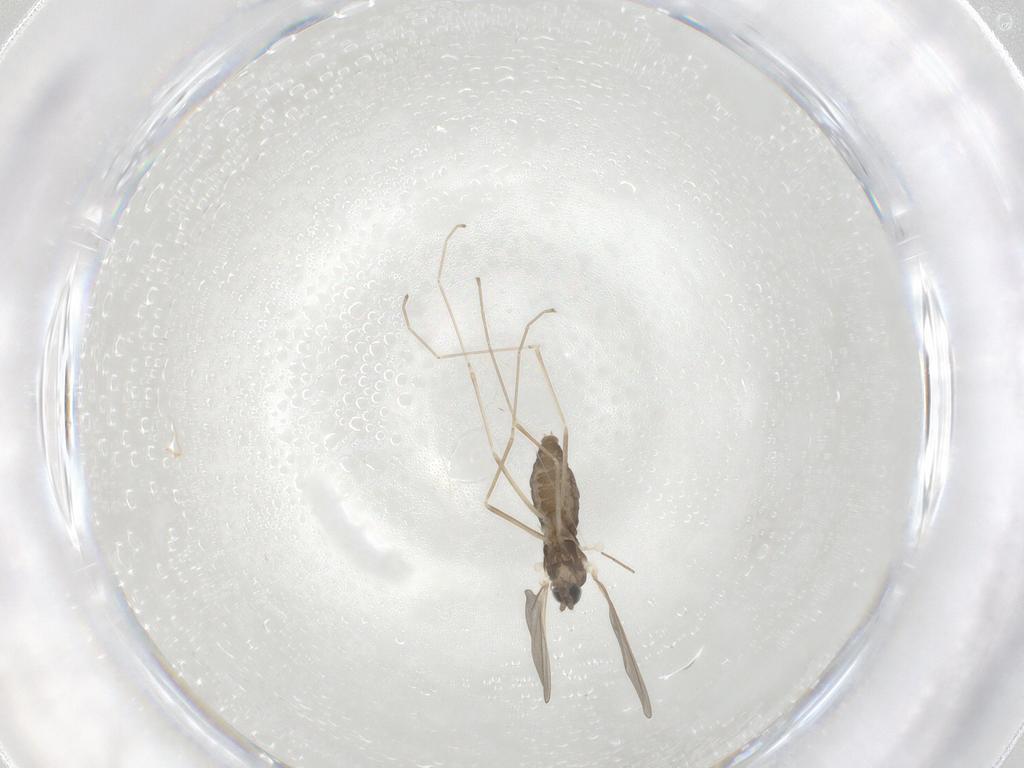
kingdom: Animalia
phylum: Arthropoda
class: Insecta
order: Diptera
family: Cecidomyiidae
